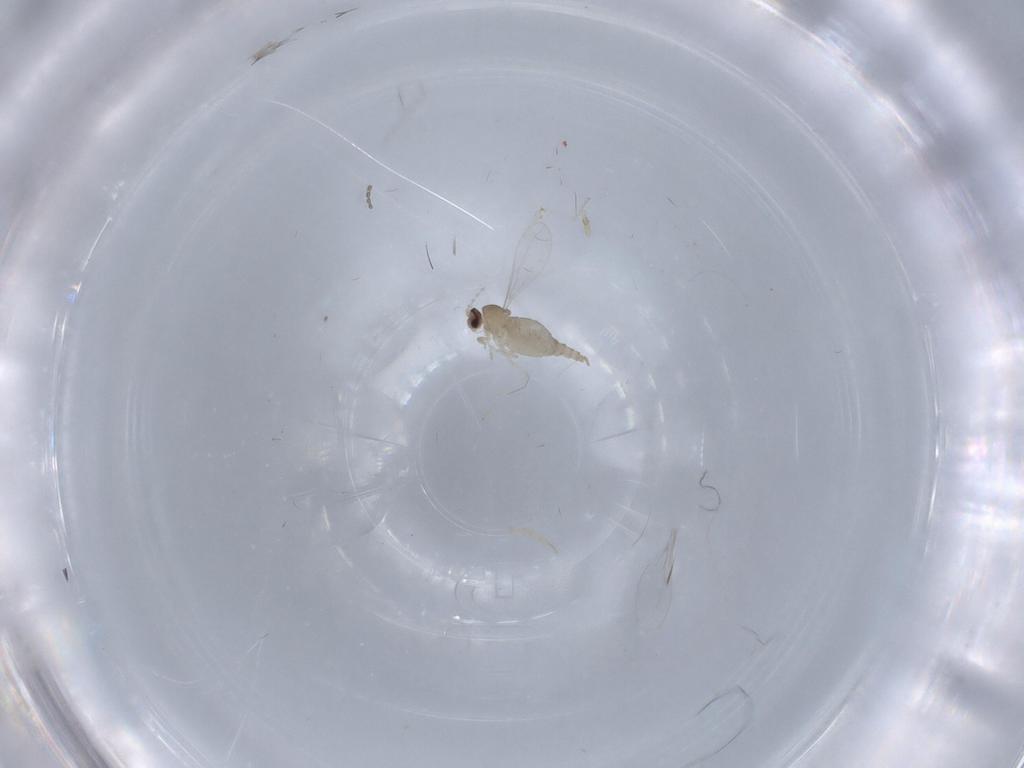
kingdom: Animalia
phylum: Arthropoda
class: Insecta
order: Diptera
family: Cecidomyiidae
